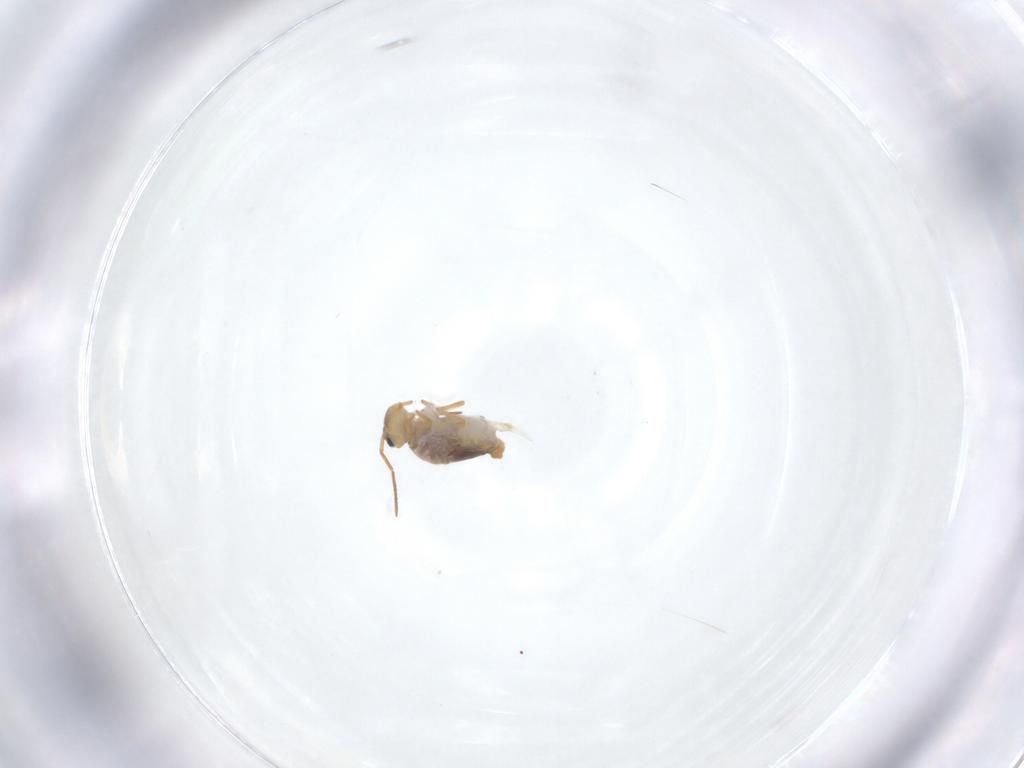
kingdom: Animalia
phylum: Arthropoda
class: Collembola
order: Symphypleona
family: Katiannidae
